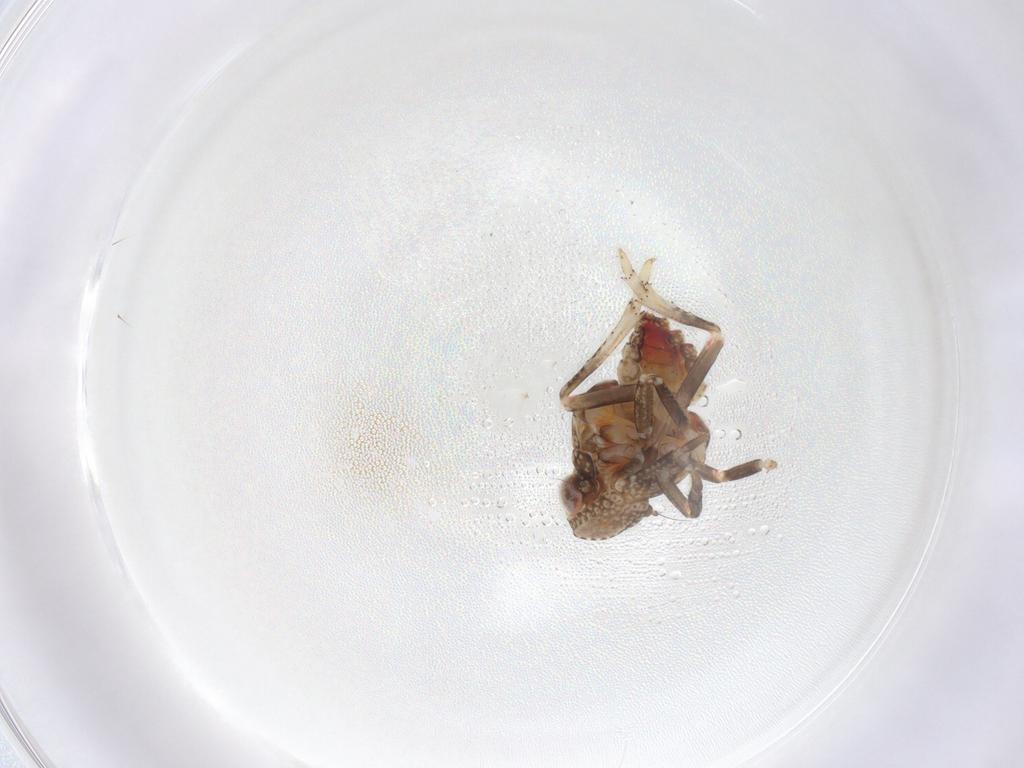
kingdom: Animalia
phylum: Arthropoda
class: Insecta
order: Hemiptera
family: Tropiduchidae
